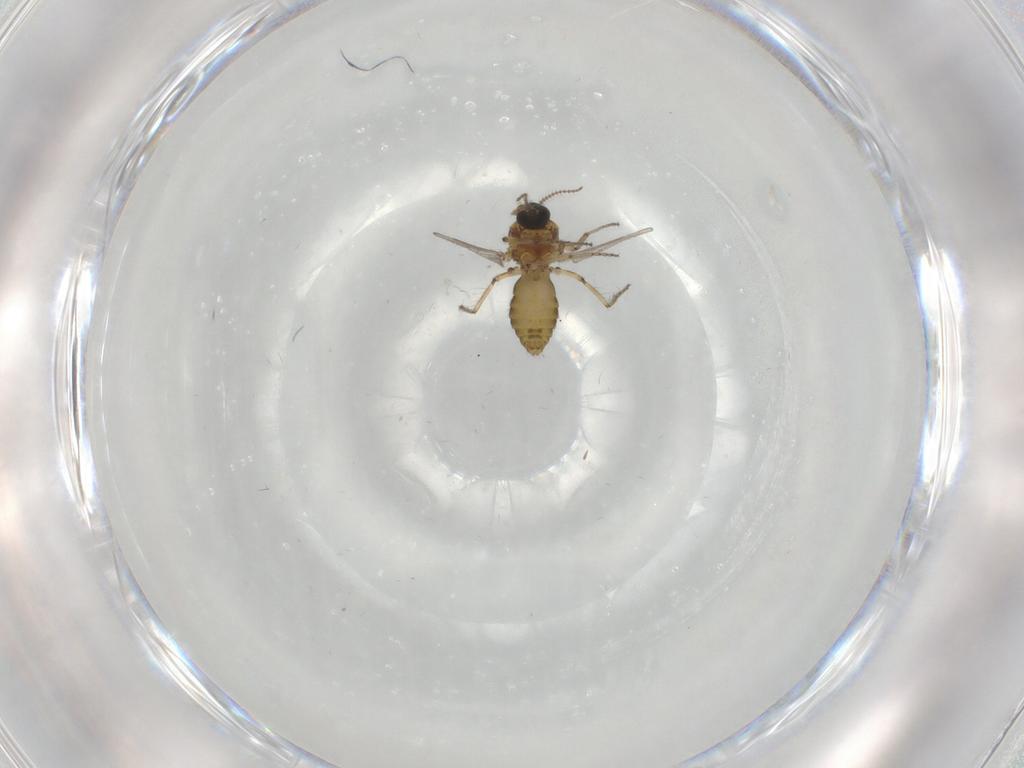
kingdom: Animalia
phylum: Arthropoda
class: Insecta
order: Diptera
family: Ceratopogonidae
